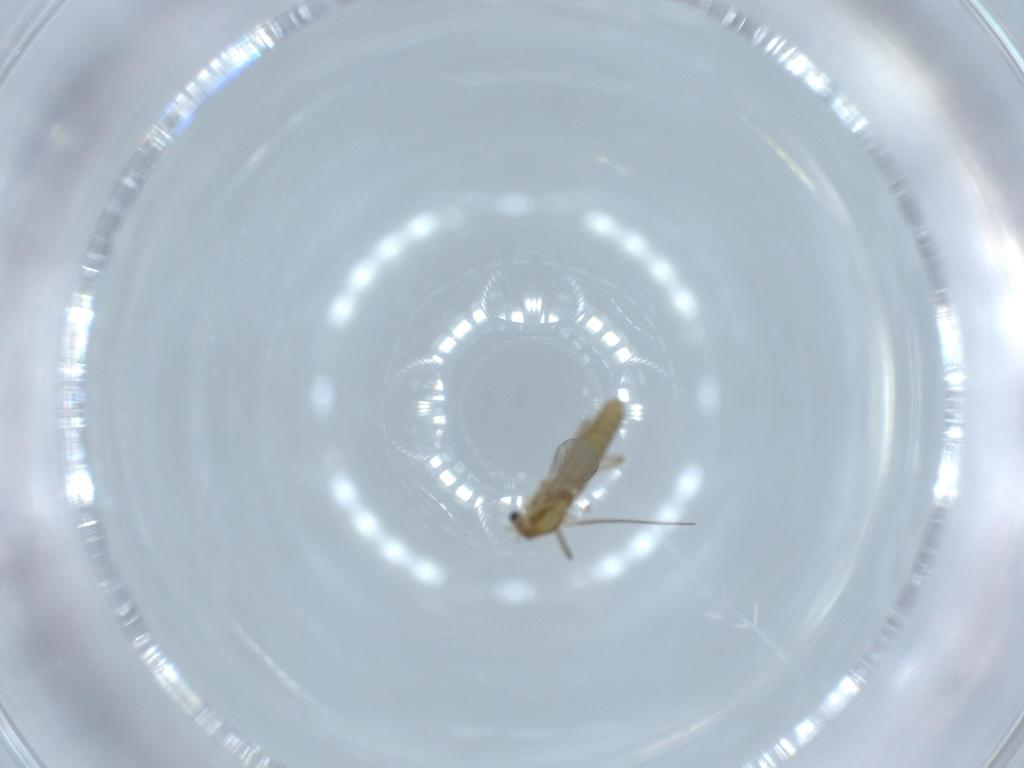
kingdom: Animalia
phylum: Arthropoda
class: Insecta
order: Diptera
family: Chironomidae
